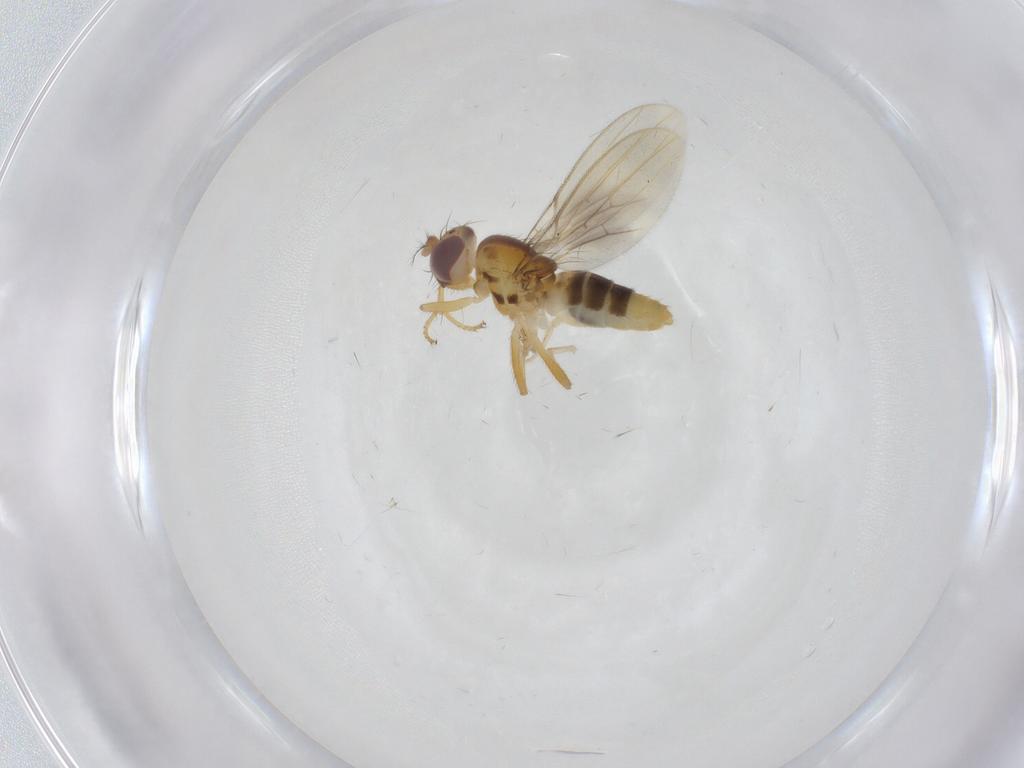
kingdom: Animalia
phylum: Arthropoda
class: Insecta
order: Diptera
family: Periscelididae
